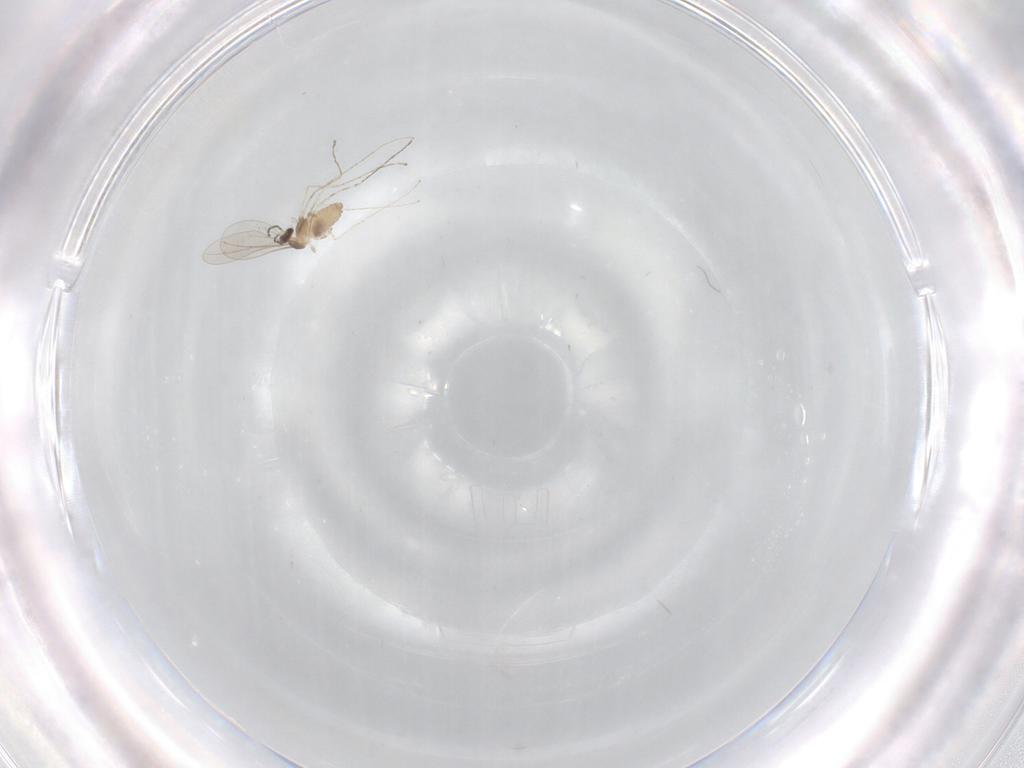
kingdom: Animalia
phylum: Arthropoda
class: Insecta
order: Diptera
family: Cecidomyiidae
